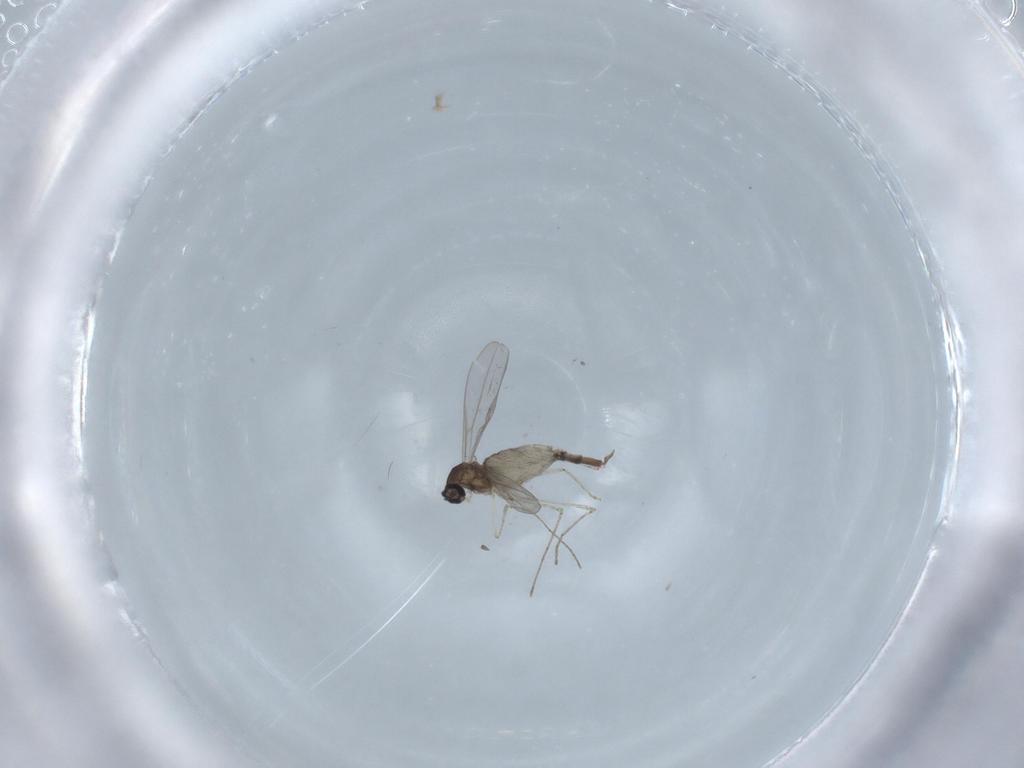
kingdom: Animalia
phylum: Arthropoda
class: Insecta
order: Diptera
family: Cecidomyiidae
